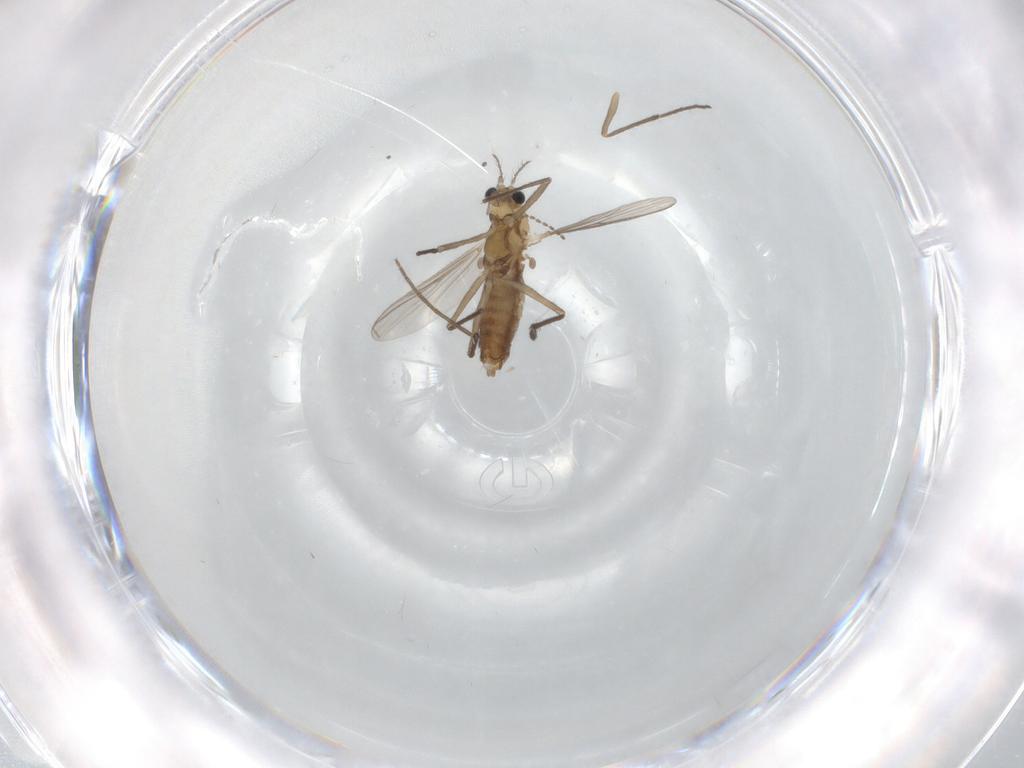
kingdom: Animalia
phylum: Arthropoda
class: Insecta
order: Diptera
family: Chironomidae
